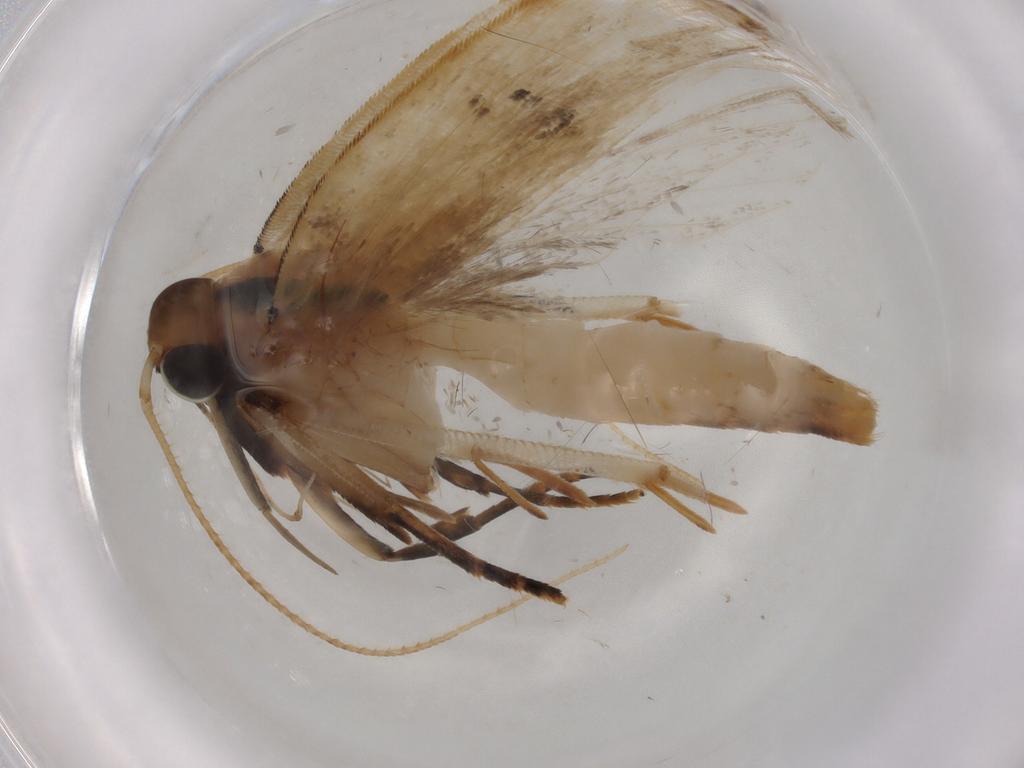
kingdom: Animalia
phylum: Arthropoda
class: Insecta
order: Lepidoptera
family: Gelechiidae
